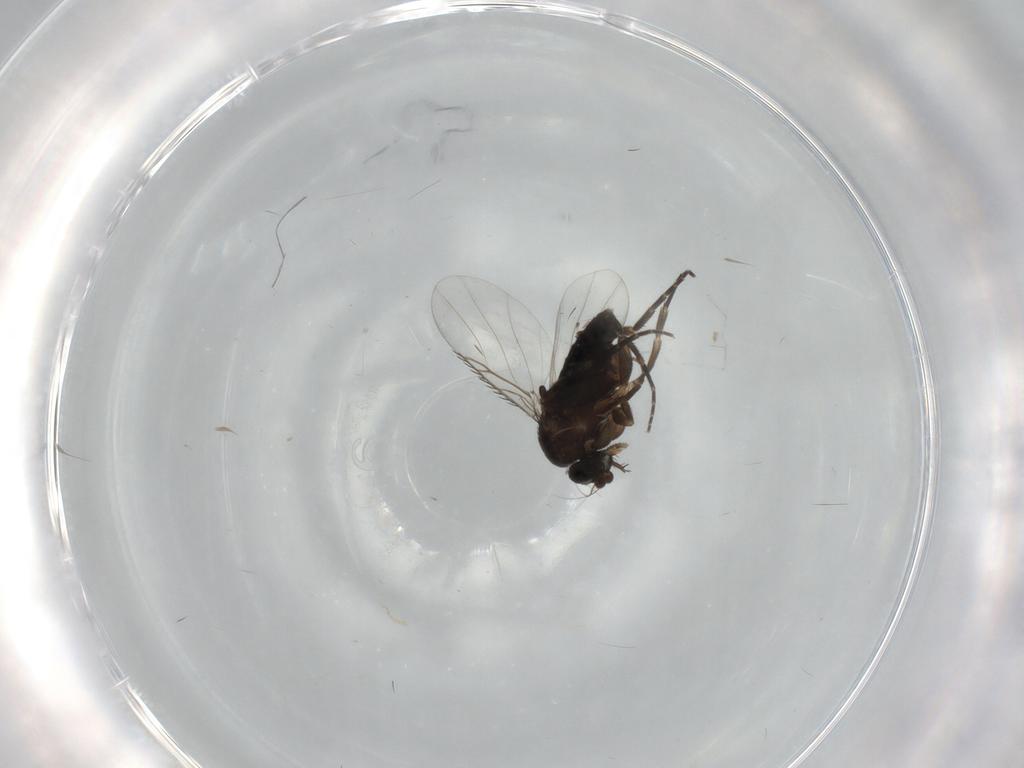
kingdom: Animalia
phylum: Arthropoda
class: Insecta
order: Diptera
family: Phoridae
